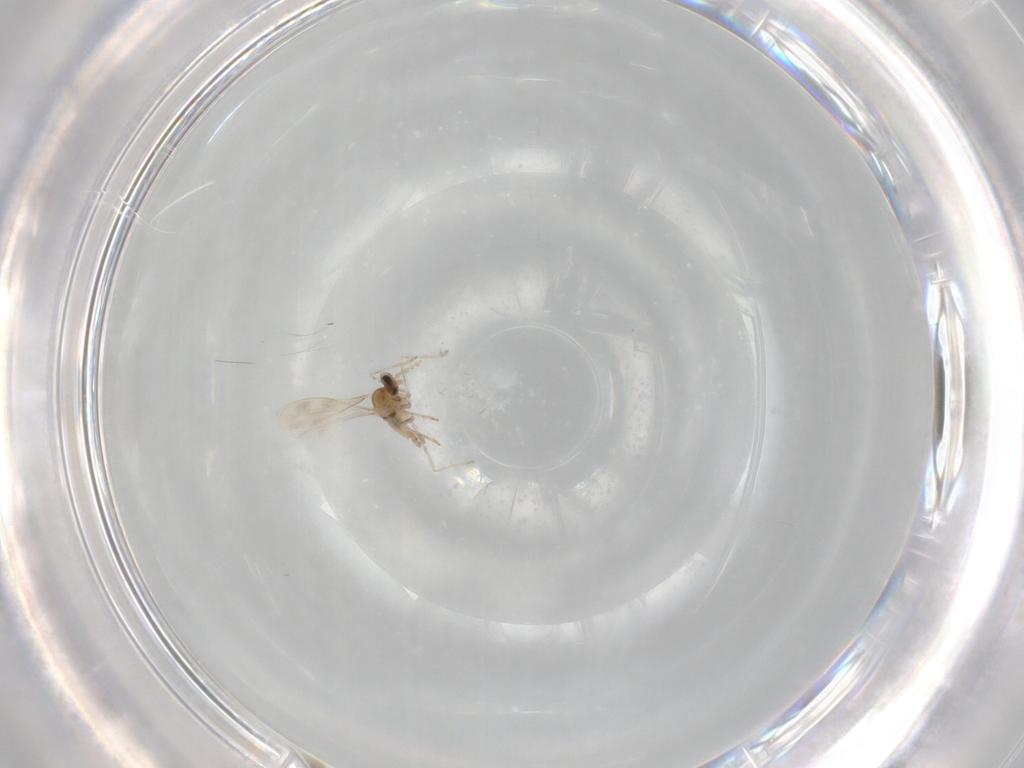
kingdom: Animalia
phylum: Arthropoda
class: Insecta
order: Diptera
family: Cecidomyiidae
